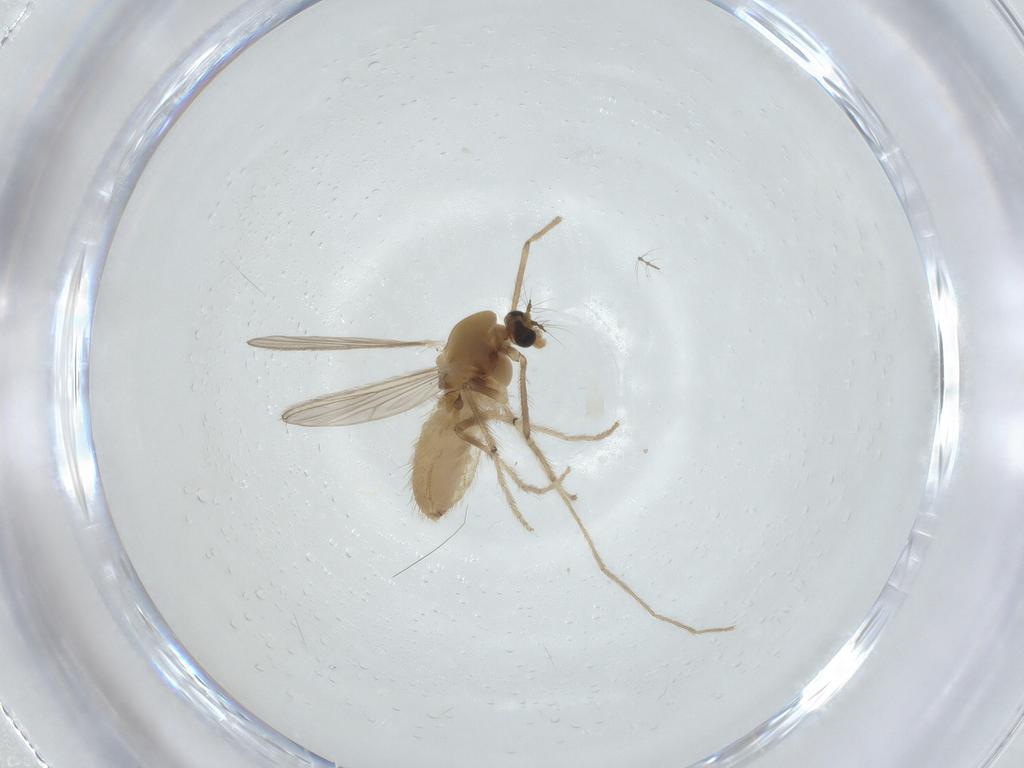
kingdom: Animalia
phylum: Arthropoda
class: Insecta
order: Diptera
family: Chironomidae
